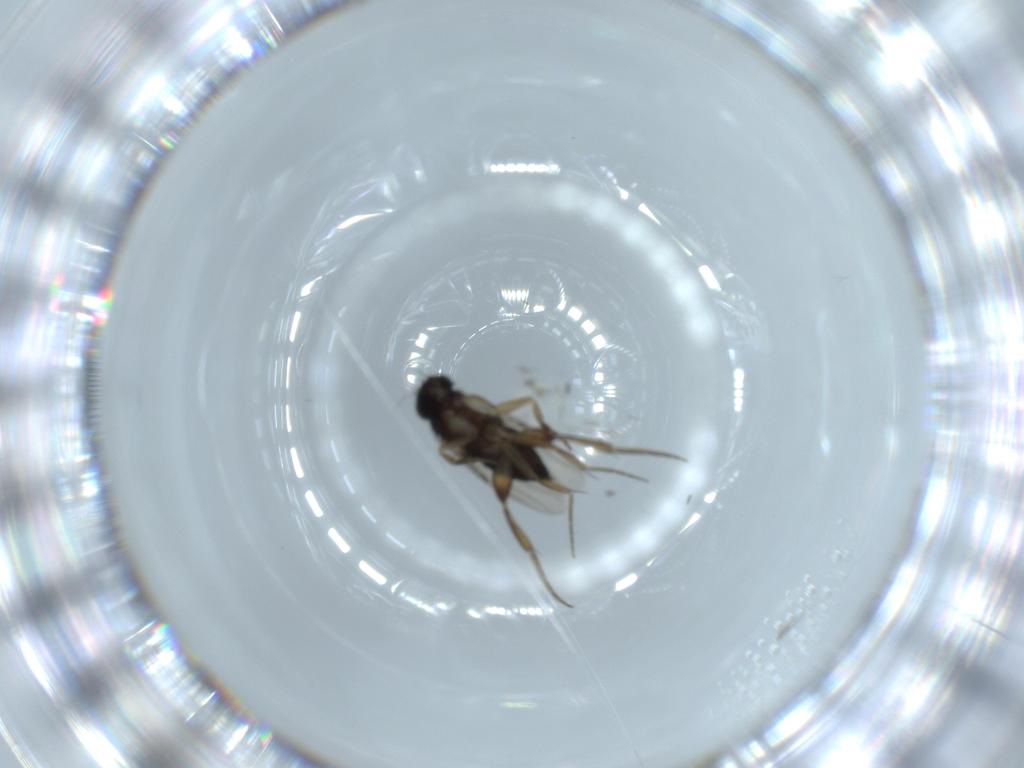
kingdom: Animalia
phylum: Arthropoda
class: Insecta
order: Diptera
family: Phoridae
